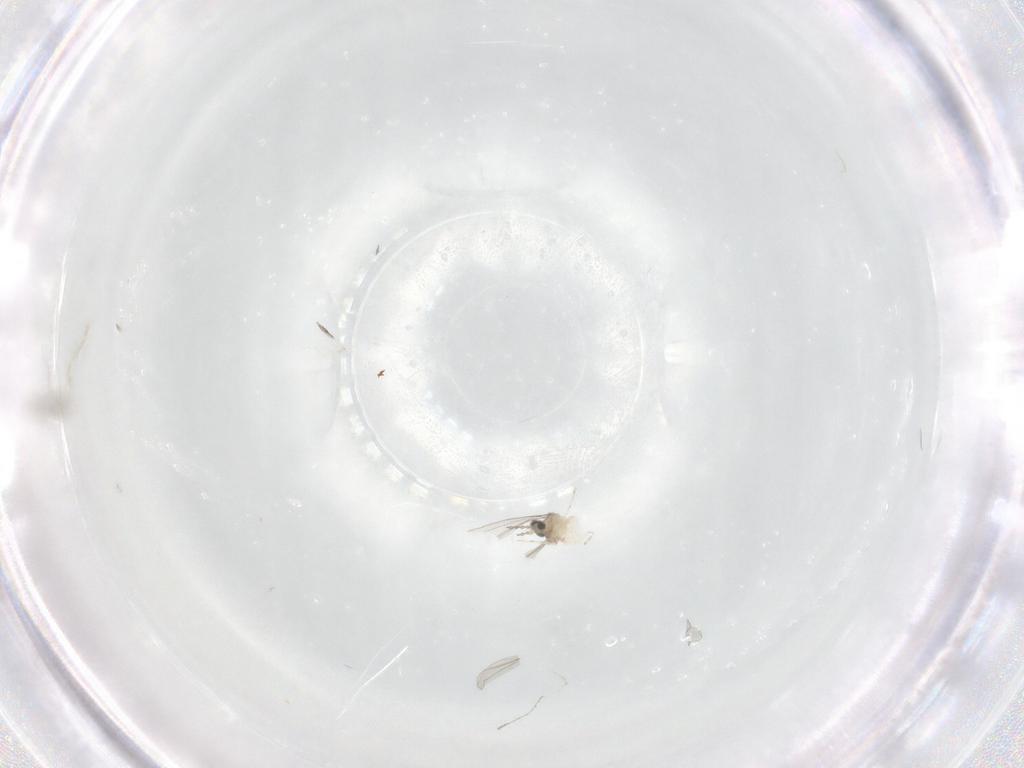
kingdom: Animalia
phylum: Arthropoda
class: Insecta
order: Diptera
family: Cecidomyiidae
